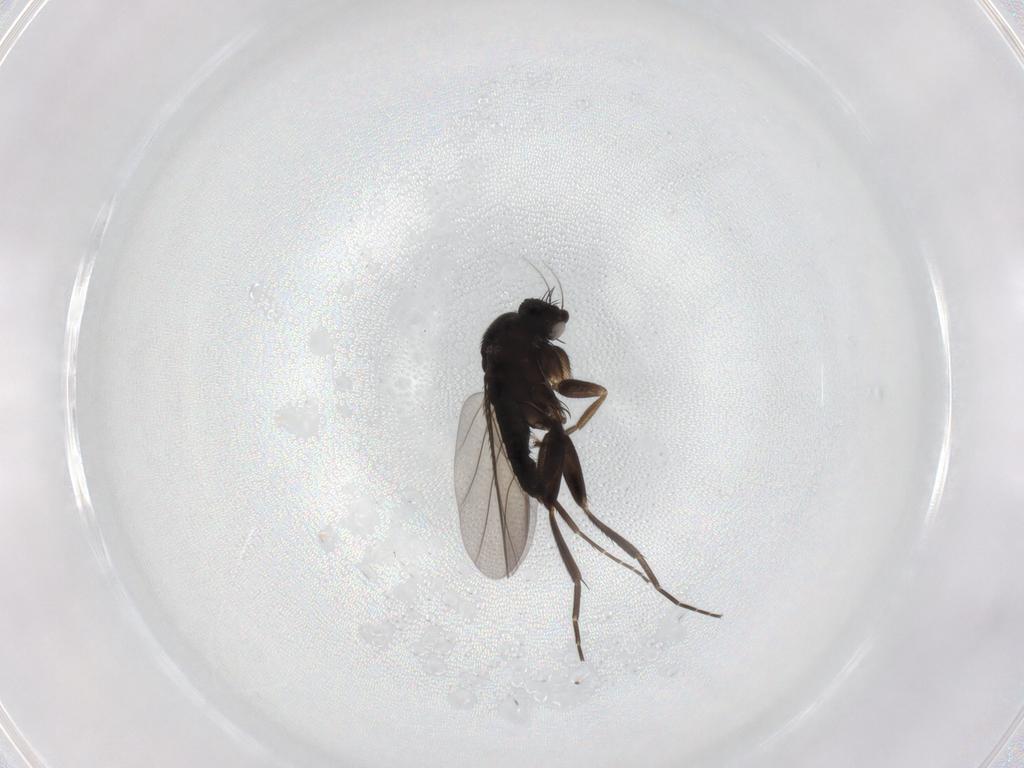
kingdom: Animalia
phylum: Arthropoda
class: Insecta
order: Diptera
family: Phoridae
